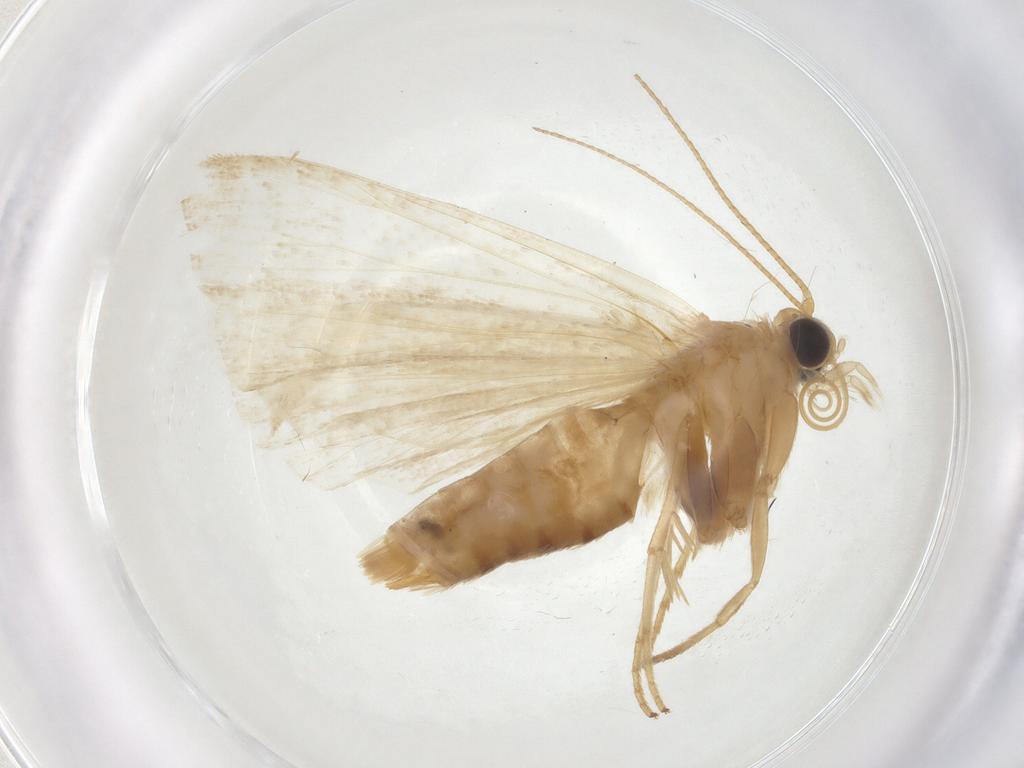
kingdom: Animalia
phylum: Arthropoda
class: Insecta
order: Lepidoptera
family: Pyralidae
